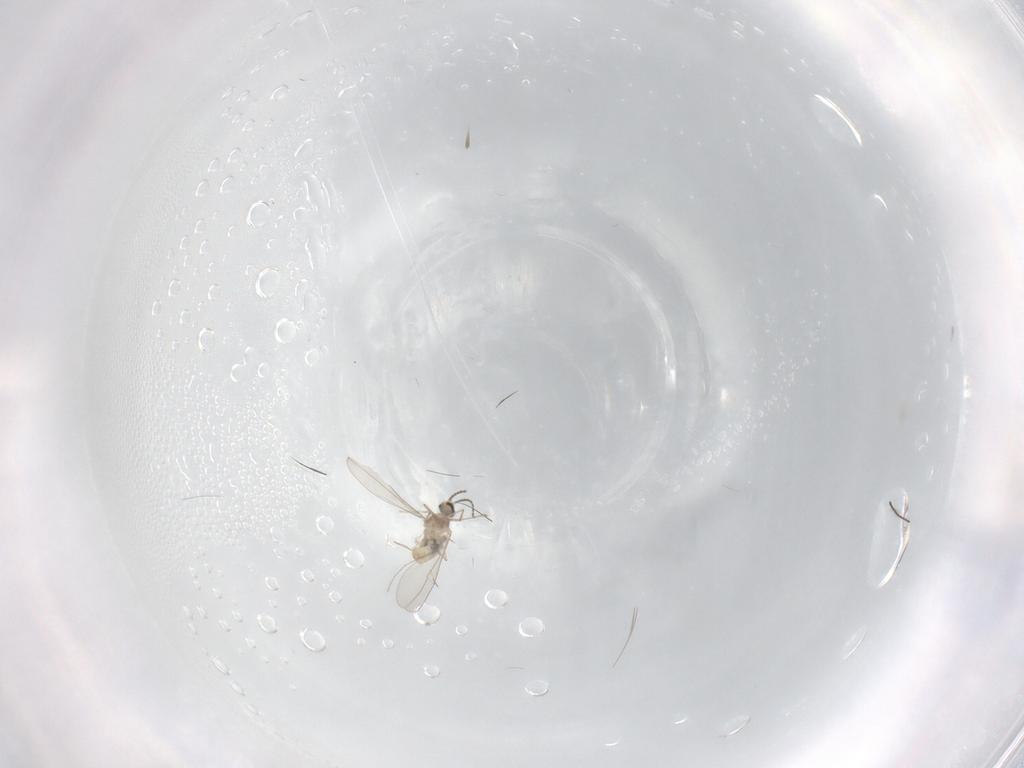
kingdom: Animalia
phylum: Arthropoda
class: Insecta
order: Diptera
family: Cecidomyiidae
